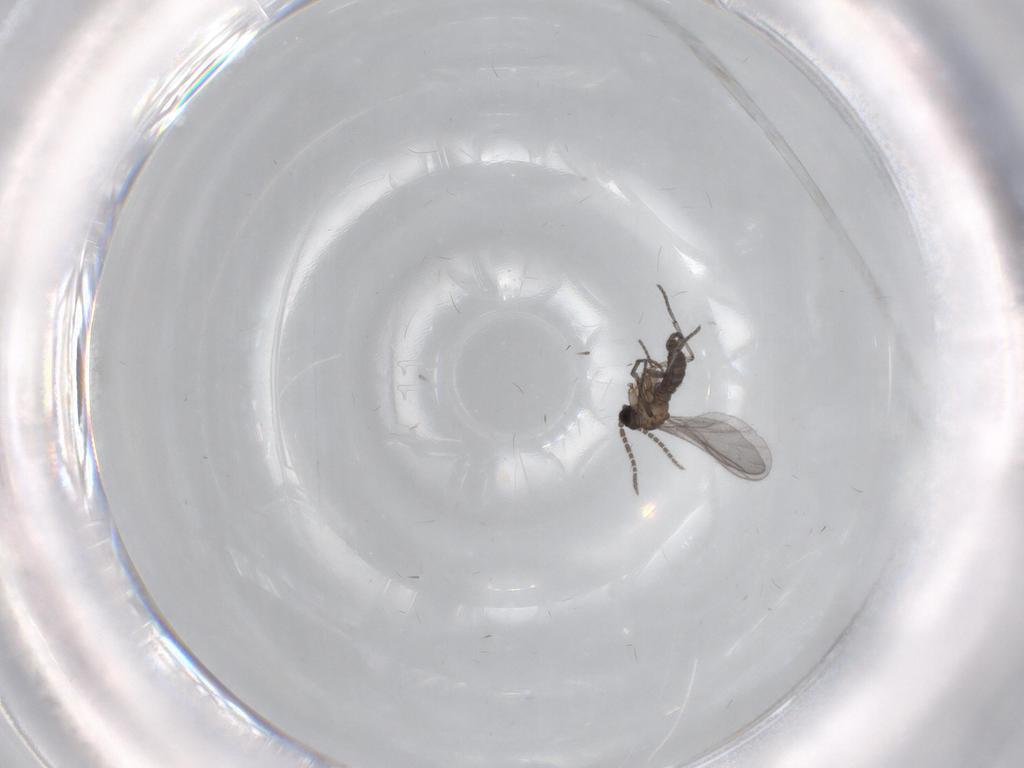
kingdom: Animalia
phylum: Arthropoda
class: Insecta
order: Diptera
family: Sciaridae
